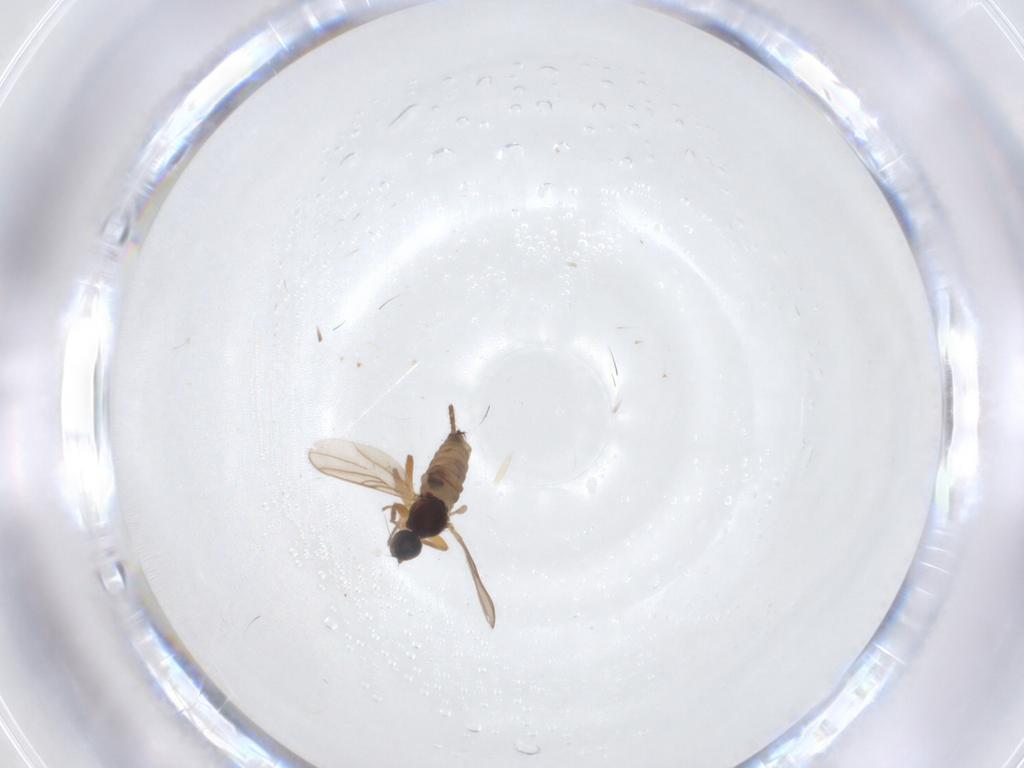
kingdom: Animalia
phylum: Arthropoda
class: Insecta
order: Diptera
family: Hybotidae
